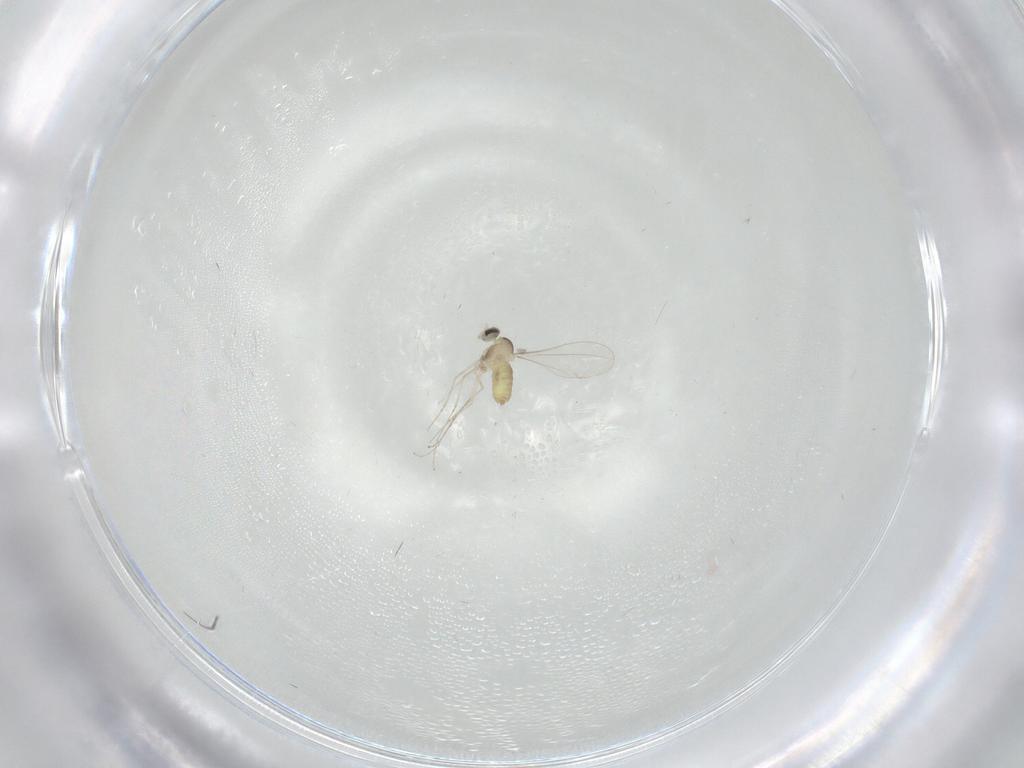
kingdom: Animalia
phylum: Arthropoda
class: Insecta
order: Diptera
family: Cecidomyiidae
